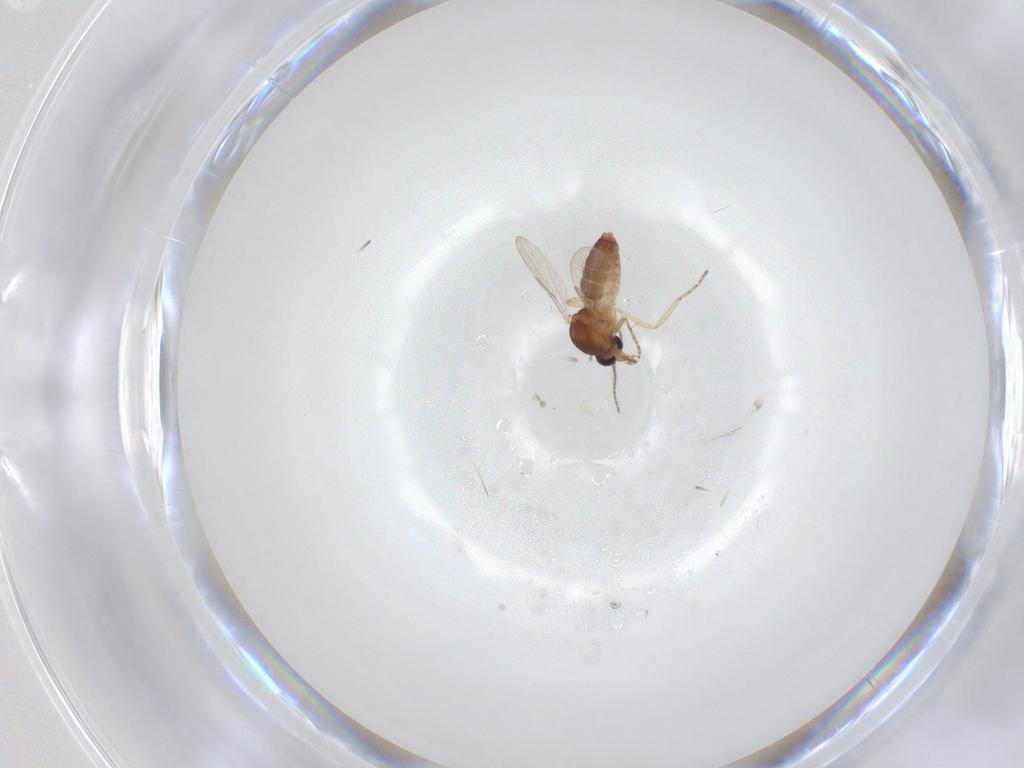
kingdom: Animalia
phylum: Arthropoda
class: Insecta
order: Diptera
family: Ceratopogonidae
